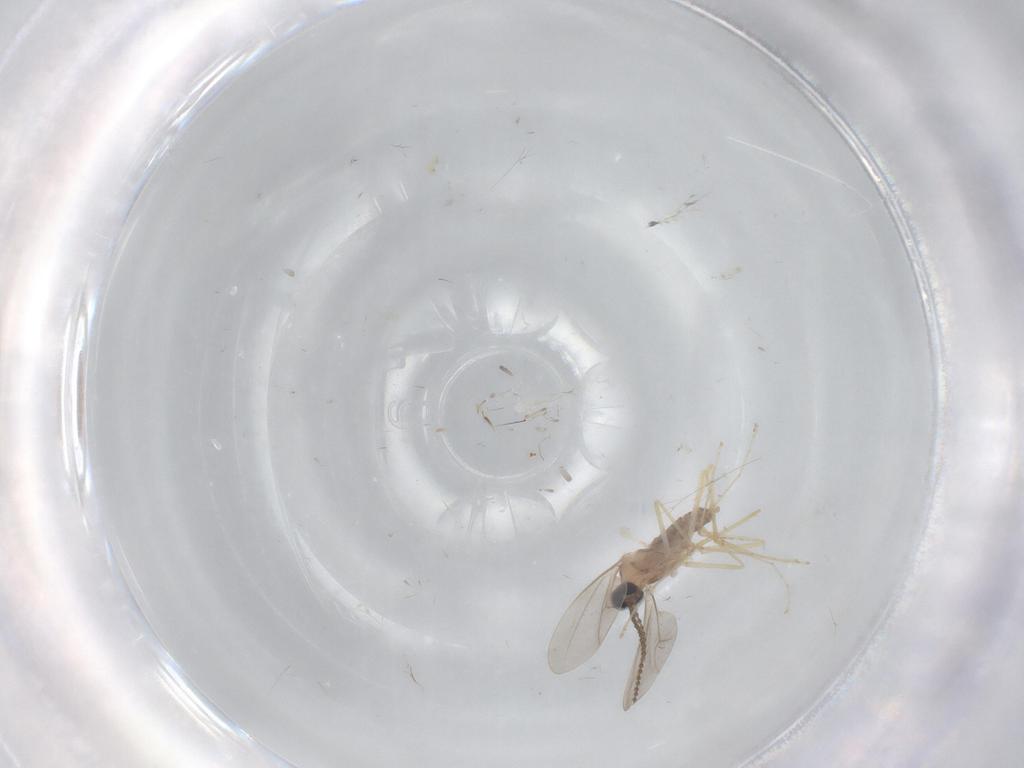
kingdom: Animalia
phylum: Arthropoda
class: Insecta
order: Diptera
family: Cecidomyiidae
